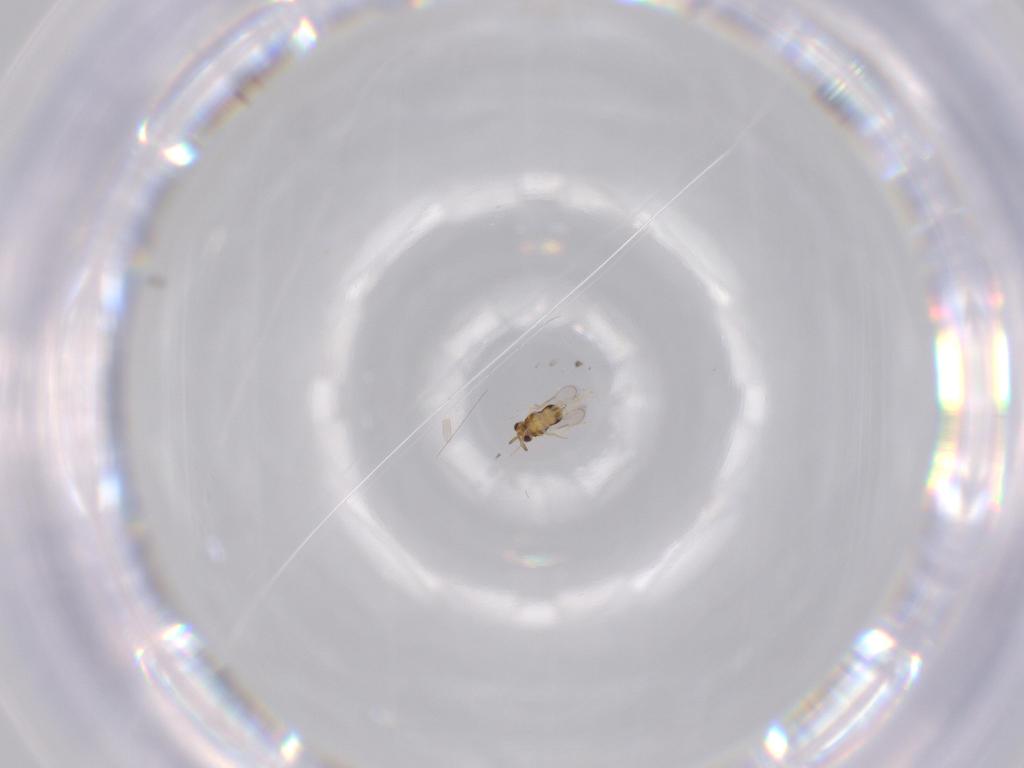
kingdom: Animalia
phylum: Arthropoda
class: Insecta
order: Hymenoptera
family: Aphelinidae
